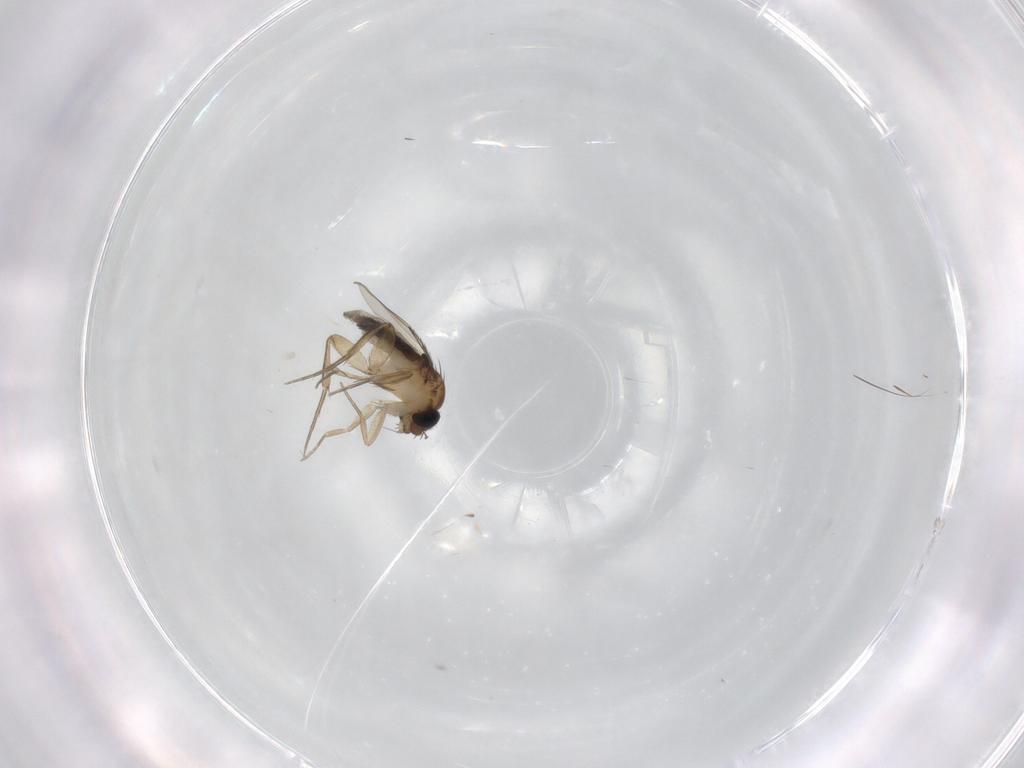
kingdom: Animalia
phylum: Arthropoda
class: Insecta
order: Diptera
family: Phoridae
